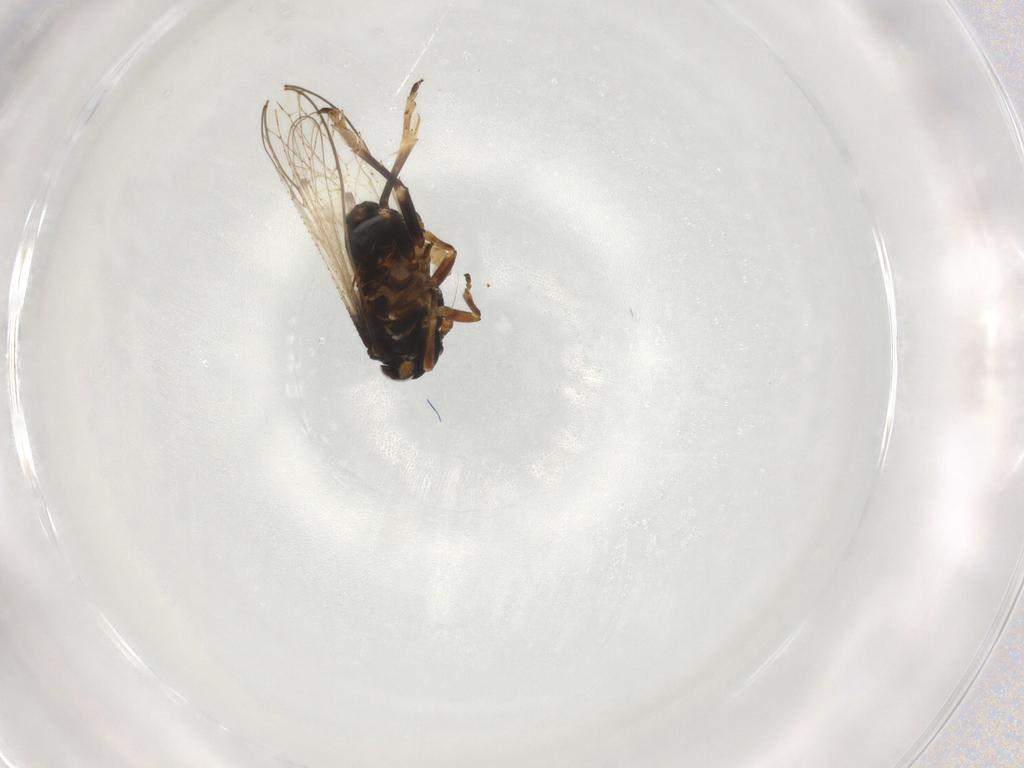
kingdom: Animalia
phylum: Arthropoda
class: Insecta
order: Hemiptera
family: Delphacidae
